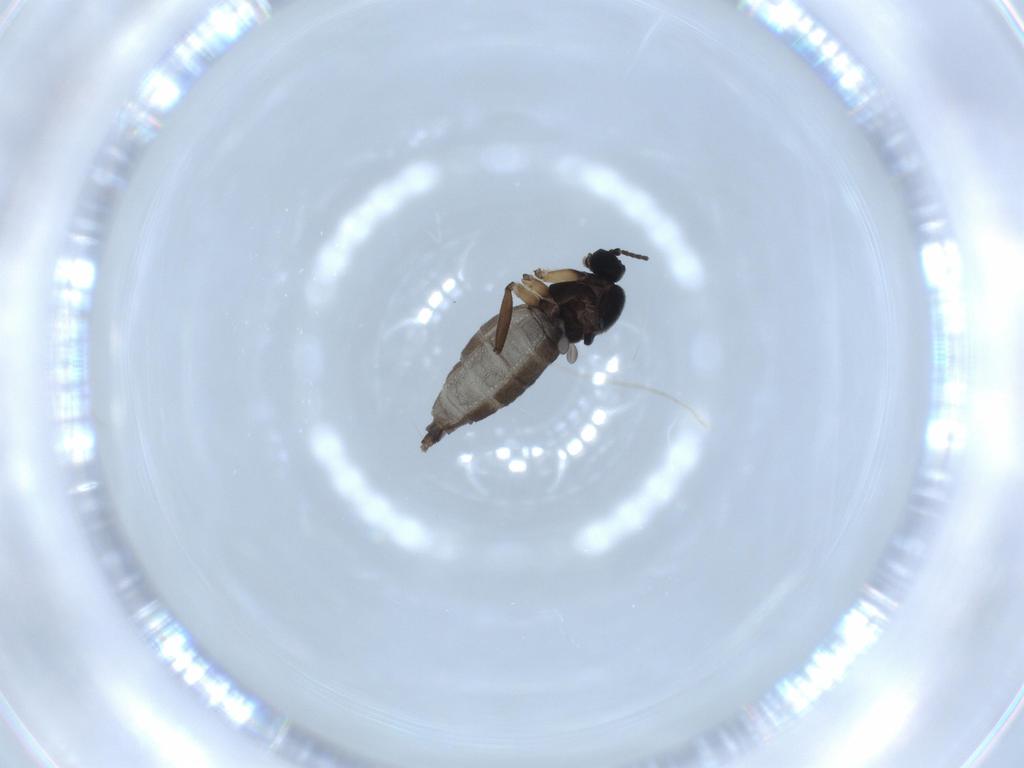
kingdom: Animalia
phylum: Arthropoda
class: Insecta
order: Diptera
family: Sciaridae
